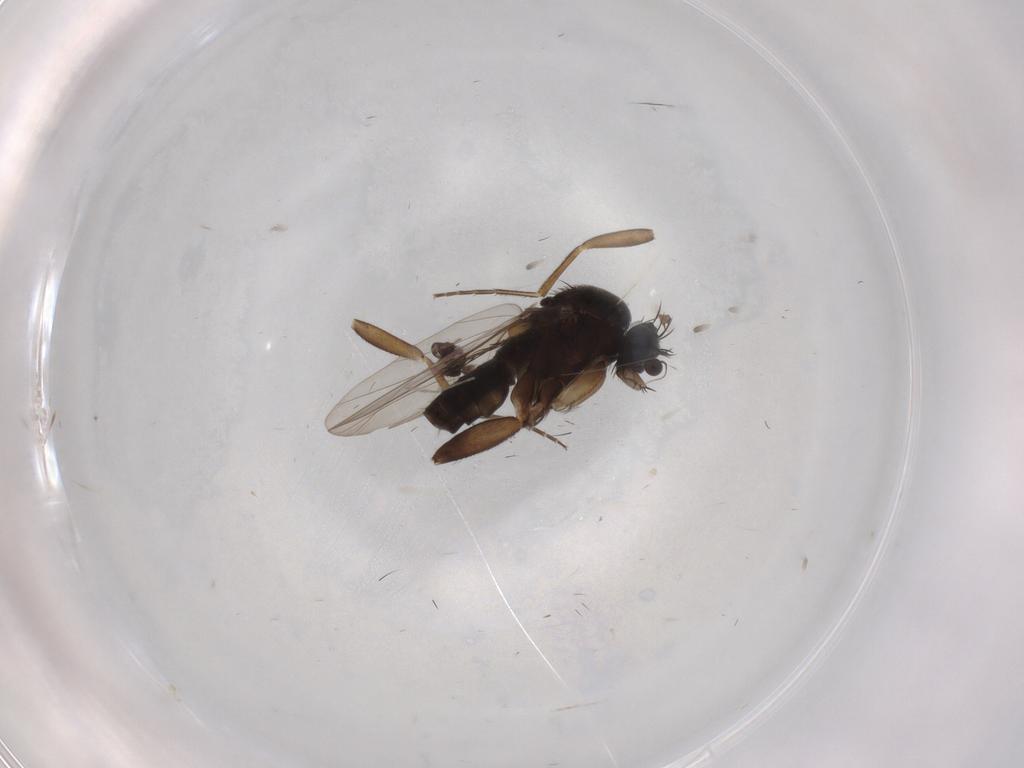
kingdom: Animalia
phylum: Arthropoda
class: Insecta
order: Diptera
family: Phoridae
